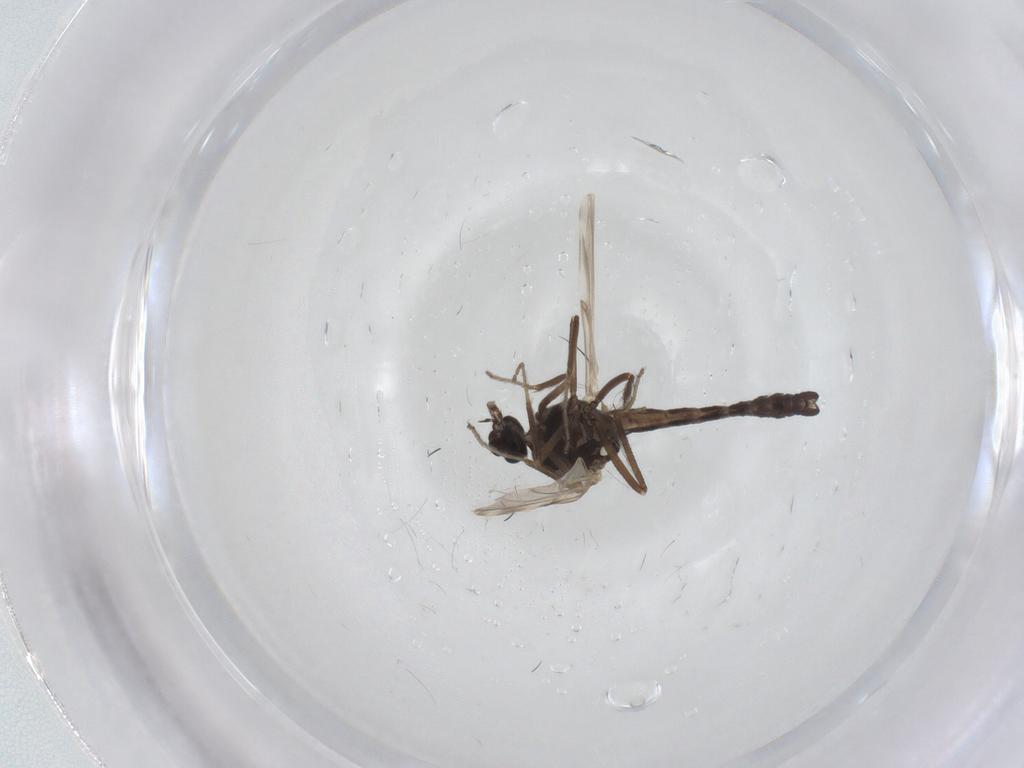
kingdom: Animalia
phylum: Arthropoda
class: Insecta
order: Diptera
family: Ceratopogonidae
